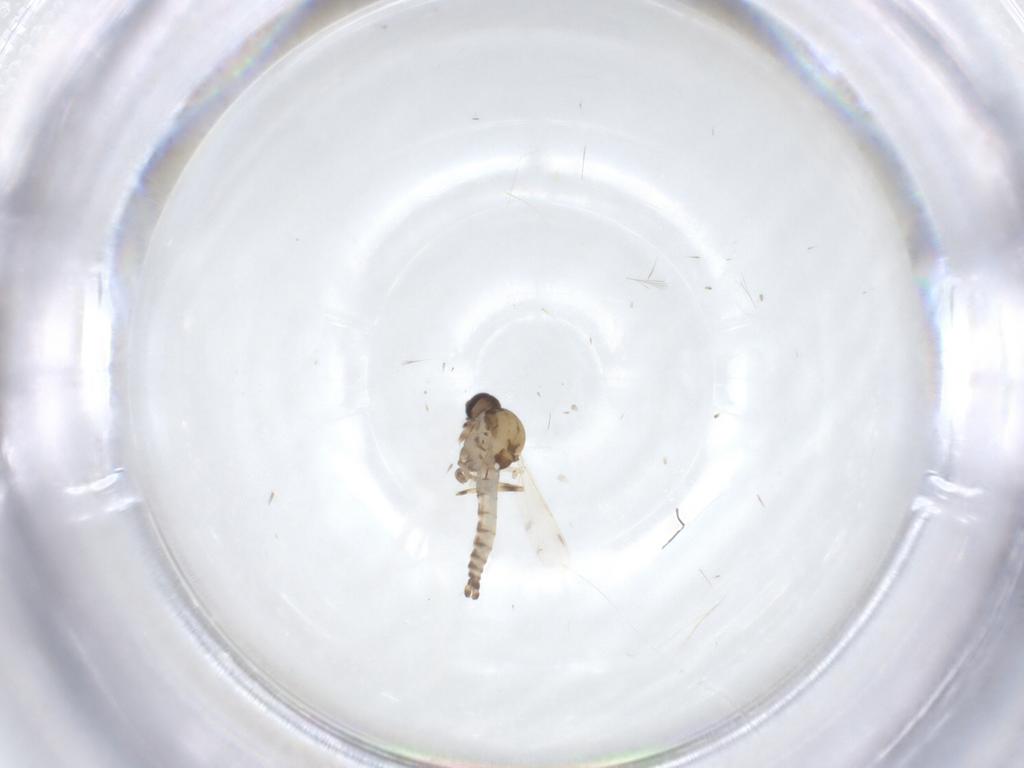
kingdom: Animalia
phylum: Arthropoda
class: Insecta
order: Diptera
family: Ceratopogonidae
